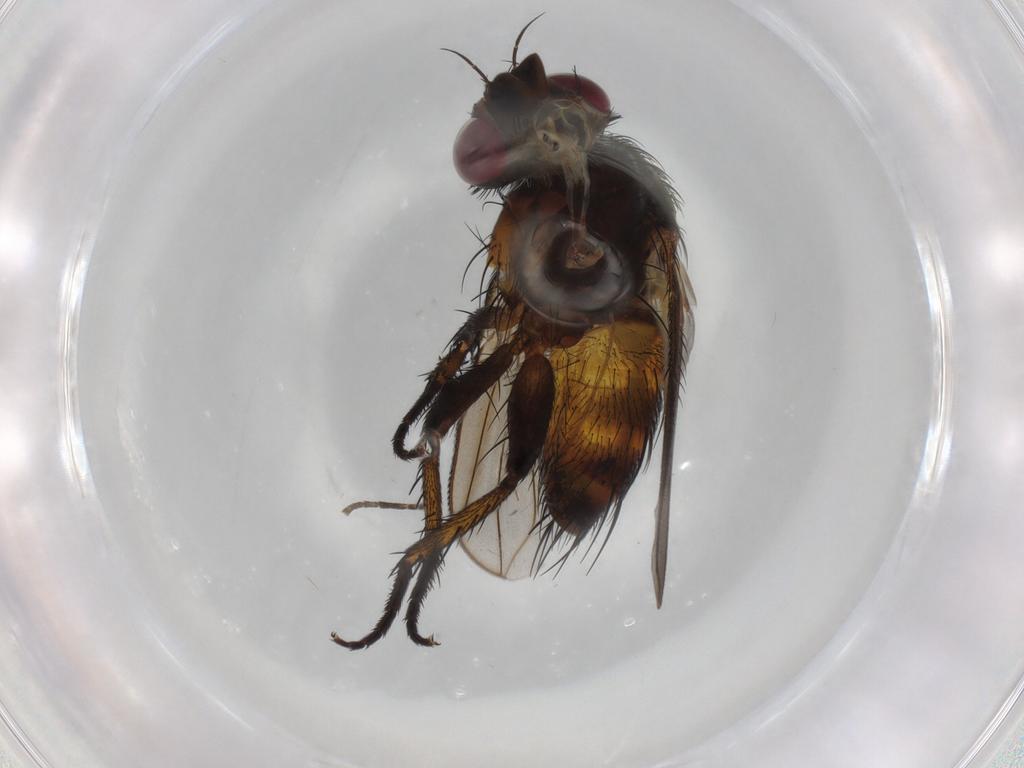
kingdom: Animalia
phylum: Arthropoda
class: Insecta
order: Diptera
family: Tachinidae
